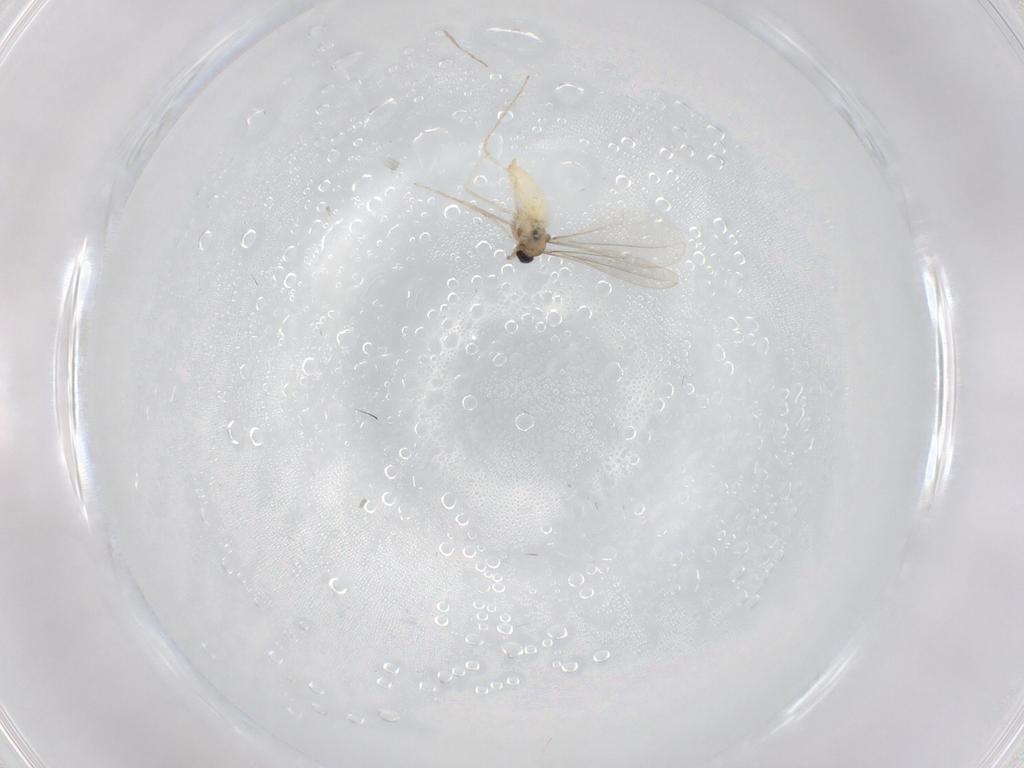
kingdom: Animalia
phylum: Arthropoda
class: Insecta
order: Diptera
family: Cecidomyiidae
